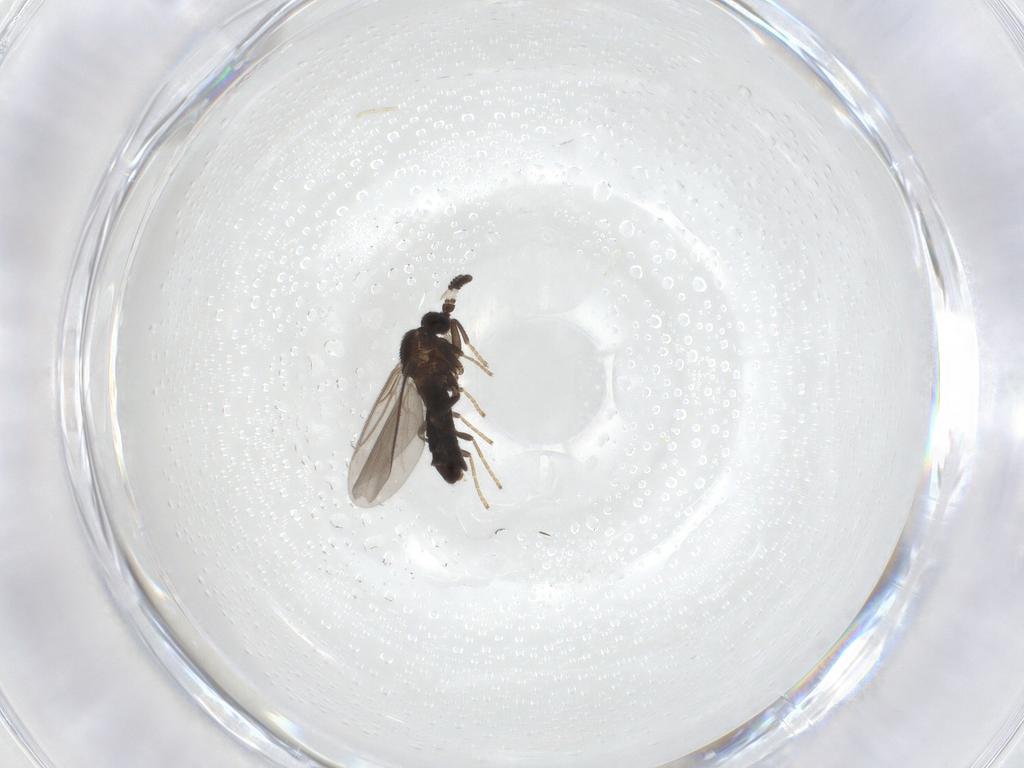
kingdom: Animalia
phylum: Arthropoda
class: Insecta
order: Diptera
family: Scatopsidae
